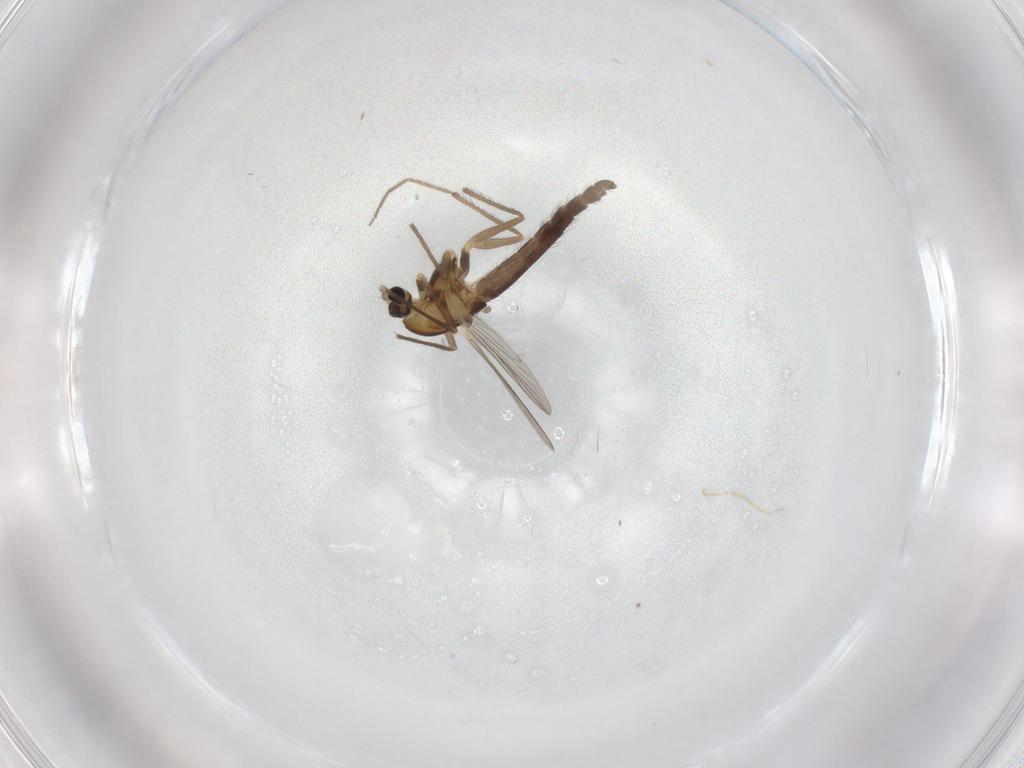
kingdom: Animalia
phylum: Arthropoda
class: Insecta
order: Diptera
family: Chironomidae
